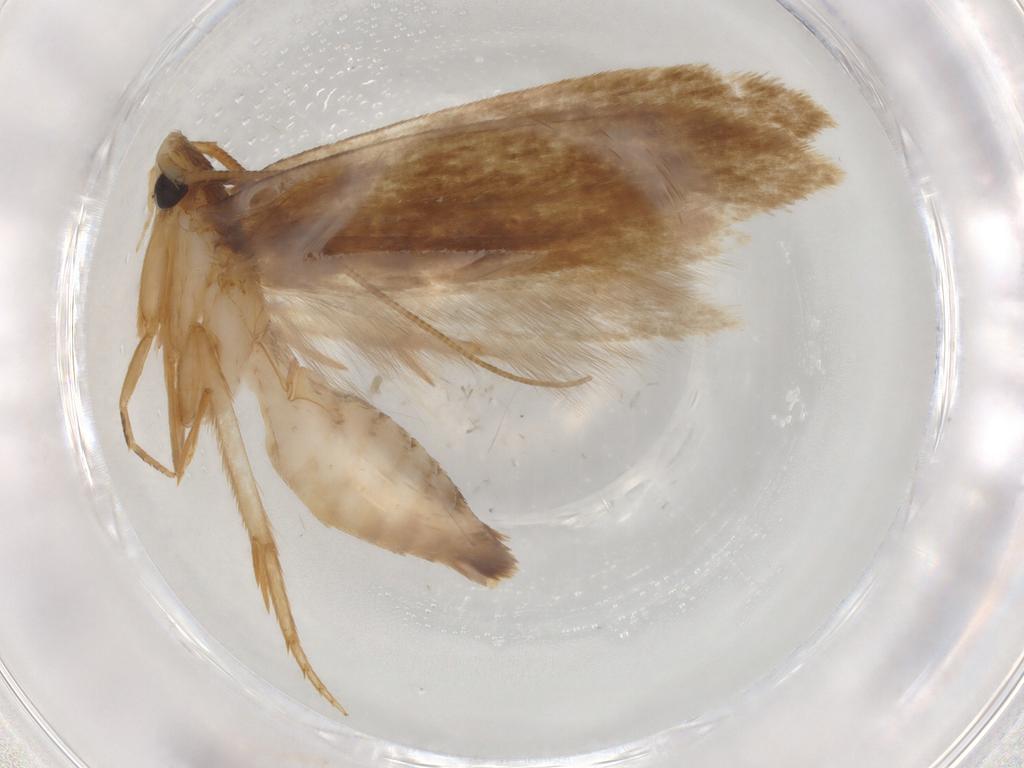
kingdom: Animalia
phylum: Arthropoda
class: Insecta
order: Lepidoptera
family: Tineidae
